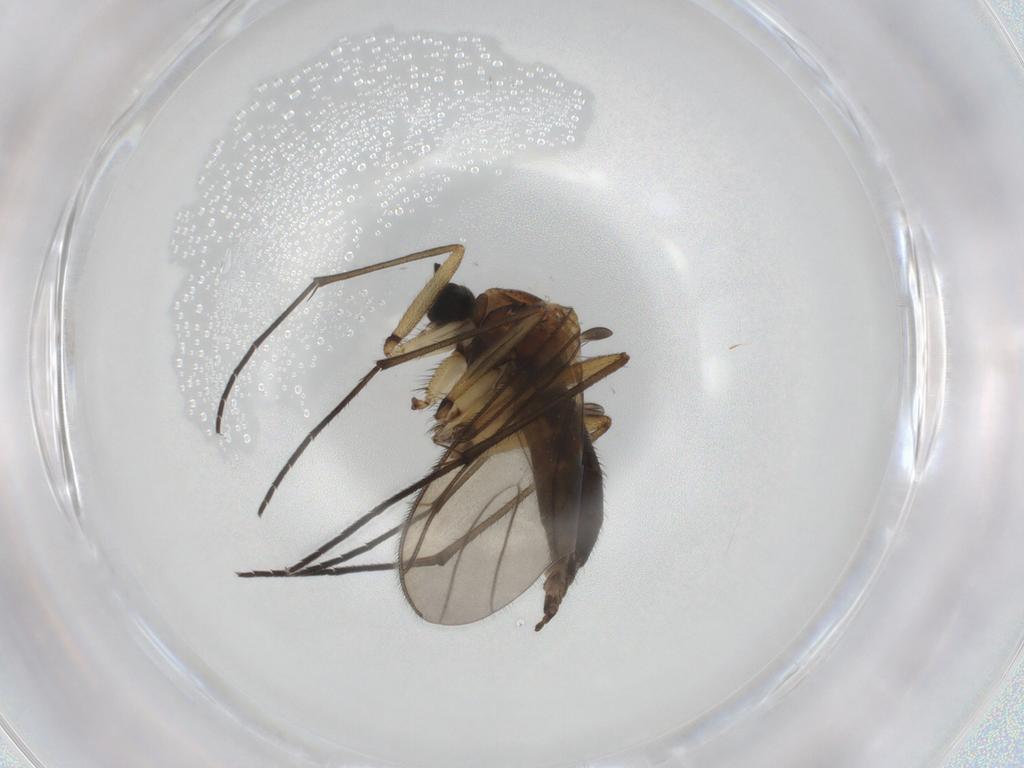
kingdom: Animalia
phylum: Arthropoda
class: Insecta
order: Diptera
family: Sciaridae
